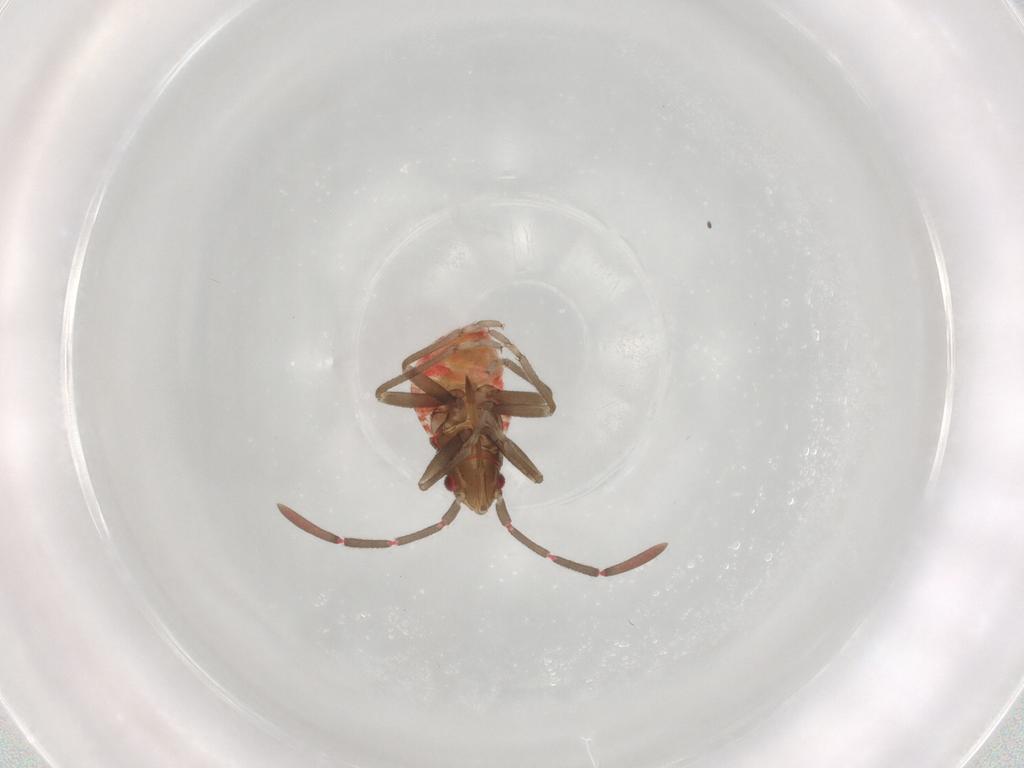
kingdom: Animalia
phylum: Arthropoda
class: Insecta
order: Hemiptera
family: Rhyparochromidae
